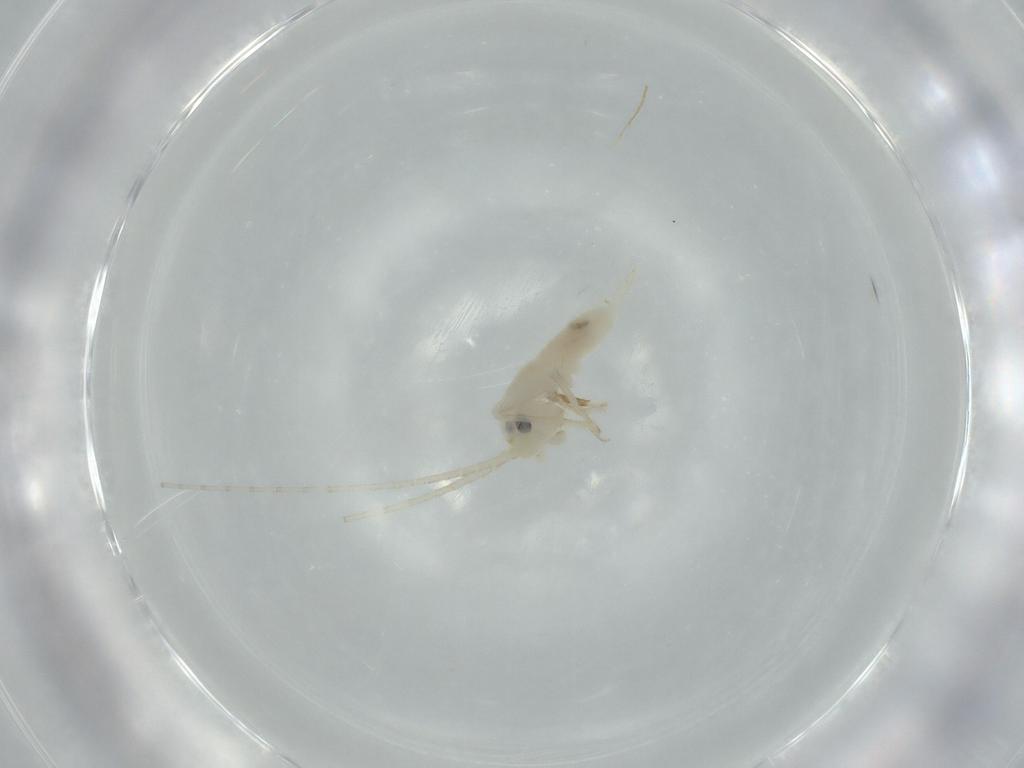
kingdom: Animalia
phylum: Arthropoda
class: Insecta
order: Orthoptera
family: Trigonidiidae
